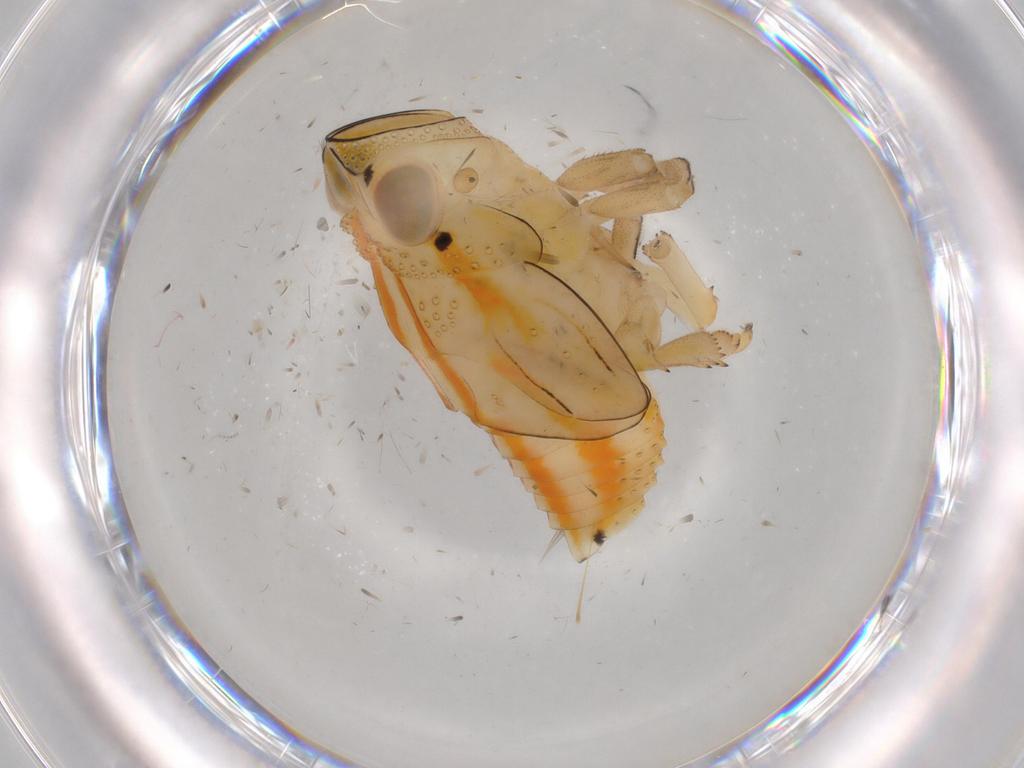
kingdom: Animalia
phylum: Arthropoda
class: Insecta
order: Hemiptera
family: Issidae
